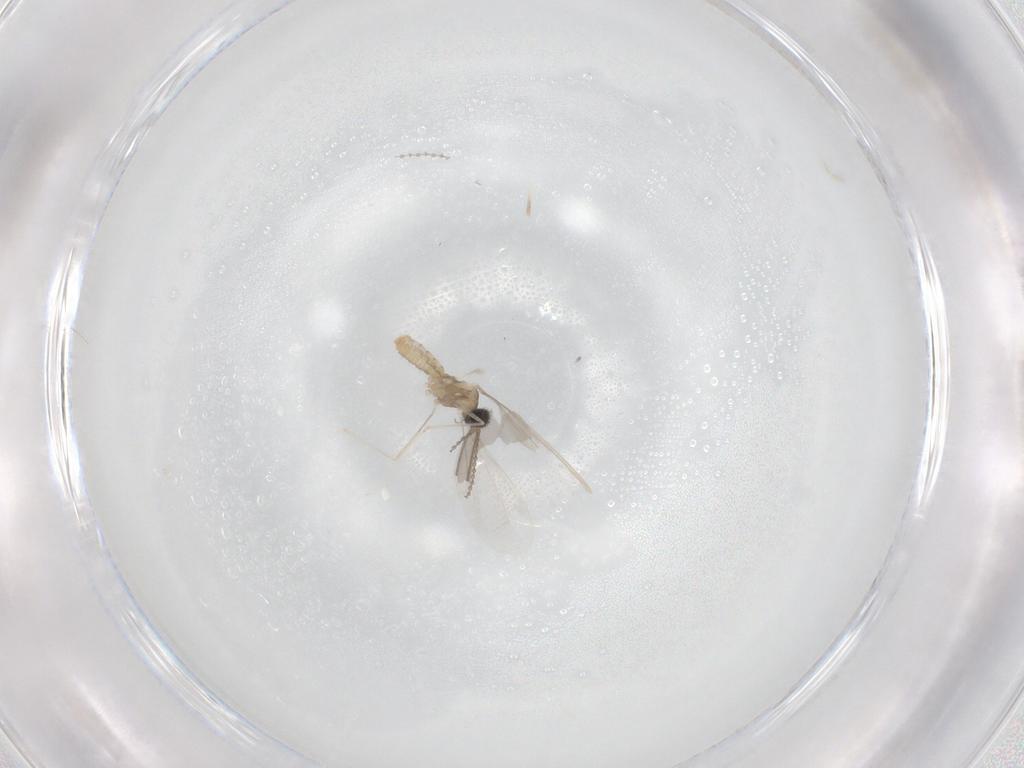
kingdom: Animalia
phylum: Arthropoda
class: Insecta
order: Diptera
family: Cecidomyiidae
